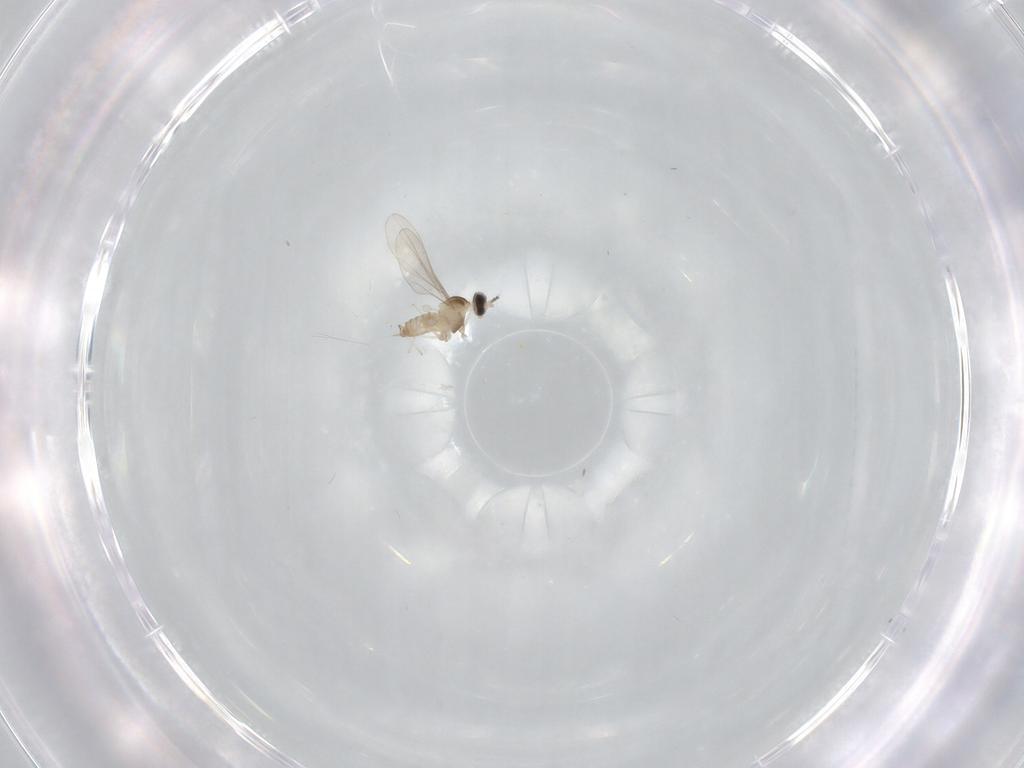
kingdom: Animalia
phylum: Arthropoda
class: Insecta
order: Diptera
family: Cecidomyiidae
